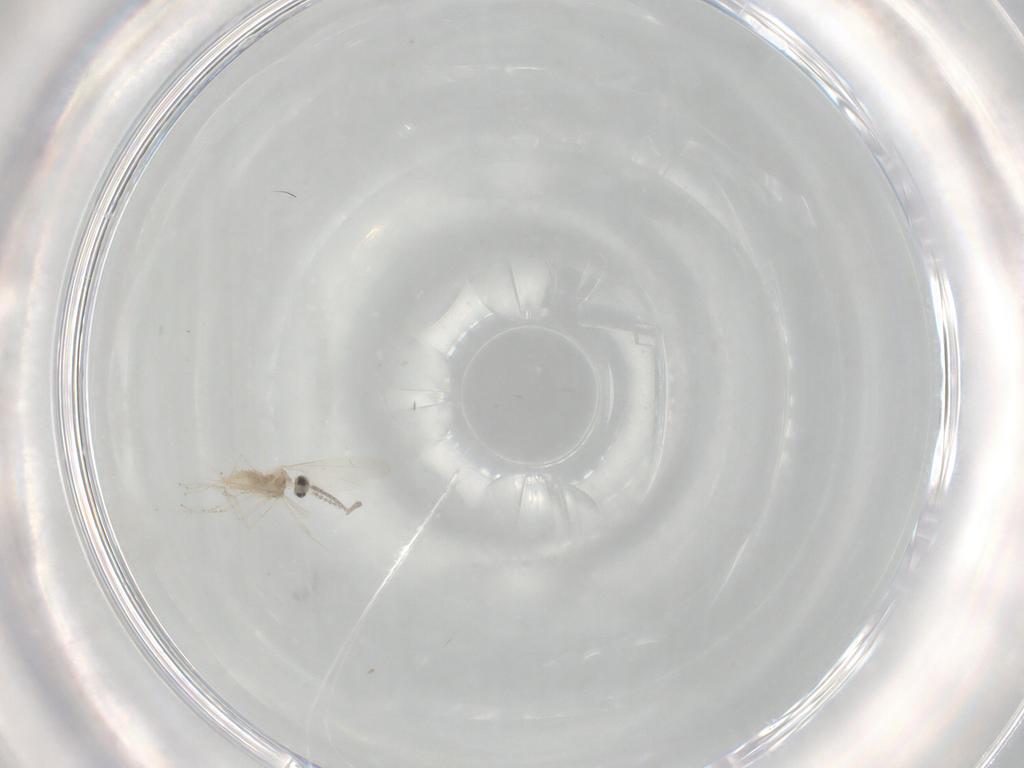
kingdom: Animalia
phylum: Arthropoda
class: Insecta
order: Diptera
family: Cecidomyiidae
